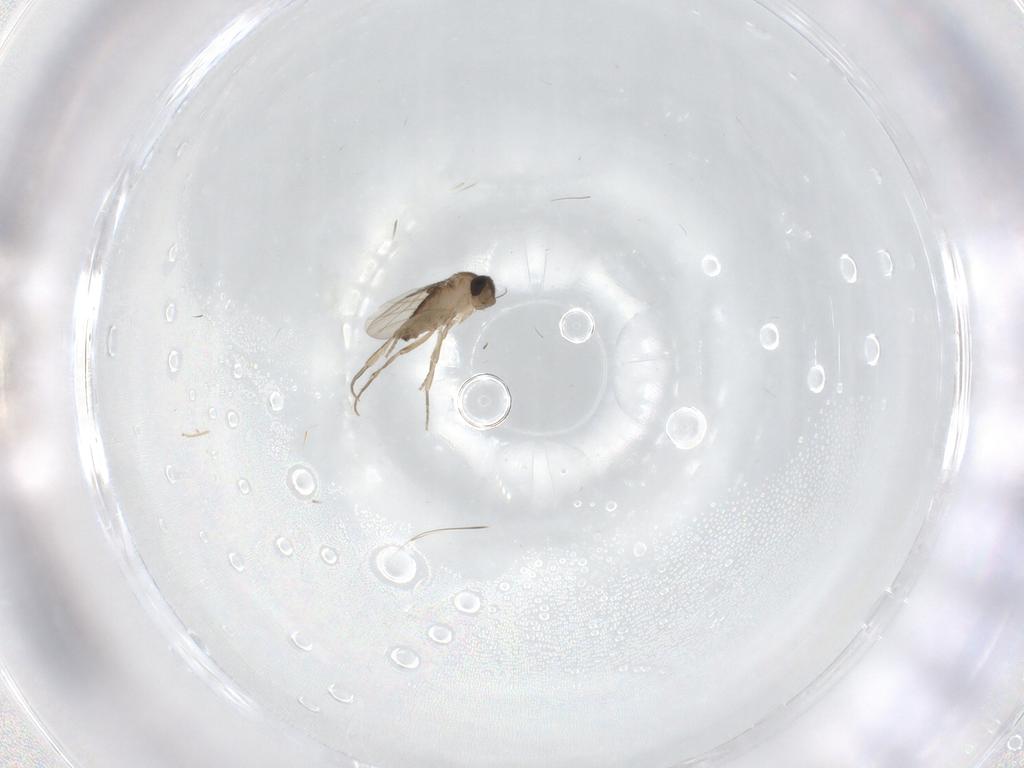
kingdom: Animalia
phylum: Arthropoda
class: Insecta
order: Diptera
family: Phoridae
